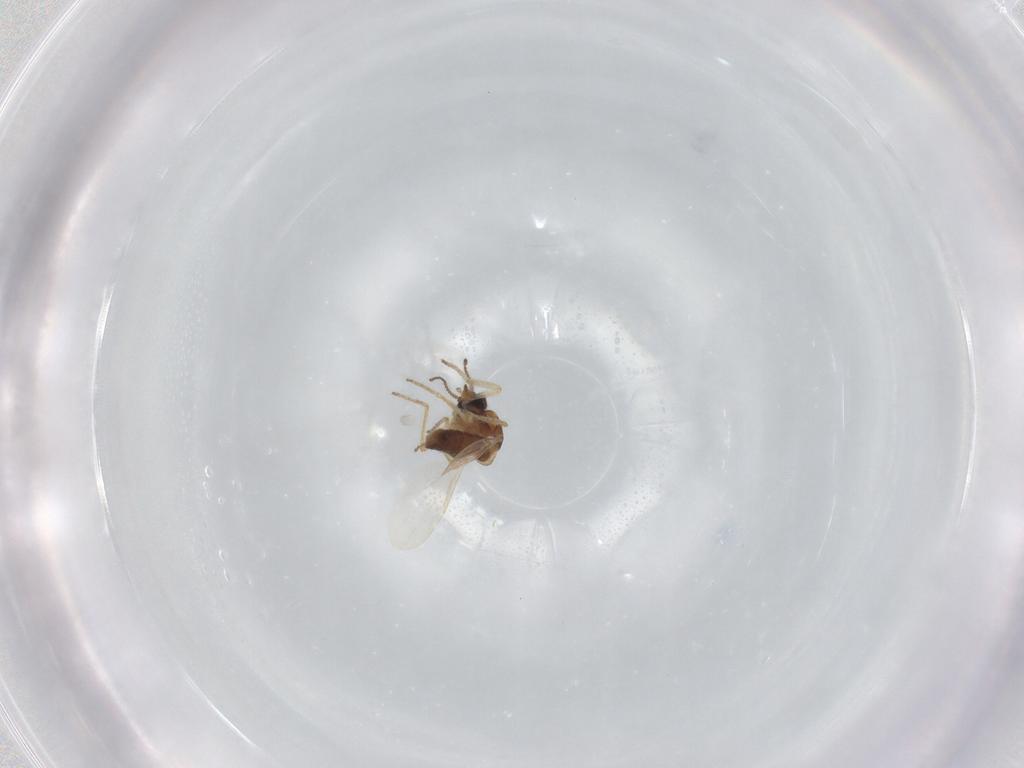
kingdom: Animalia
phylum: Arthropoda
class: Insecta
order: Diptera
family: Ceratopogonidae
